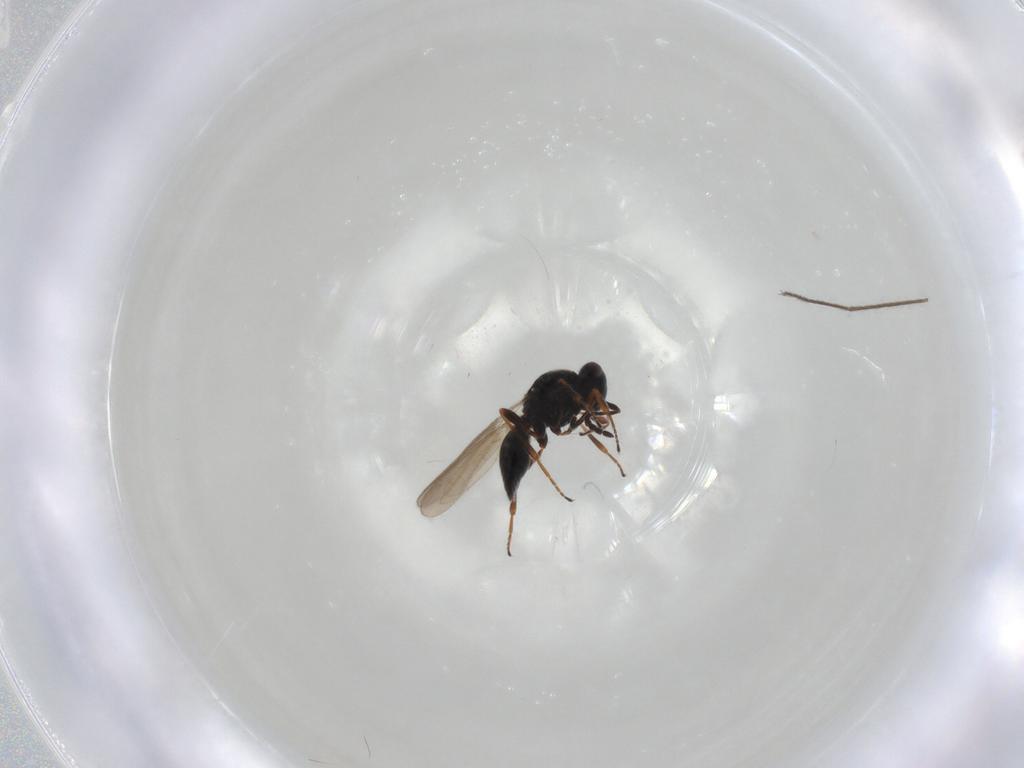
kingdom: Animalia
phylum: Arthropoda
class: Insecta
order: Hymenoptera
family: Platygastridae
